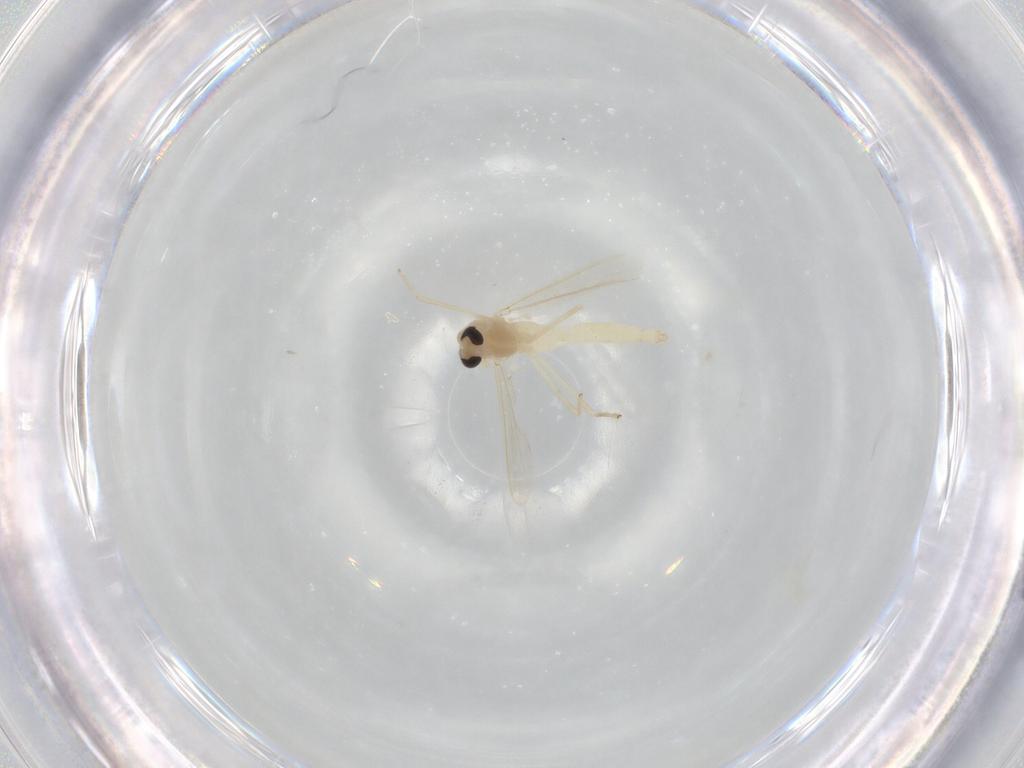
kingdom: Animalia
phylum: Arthropoda
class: Insecta
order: Diptera
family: Chironomidae
